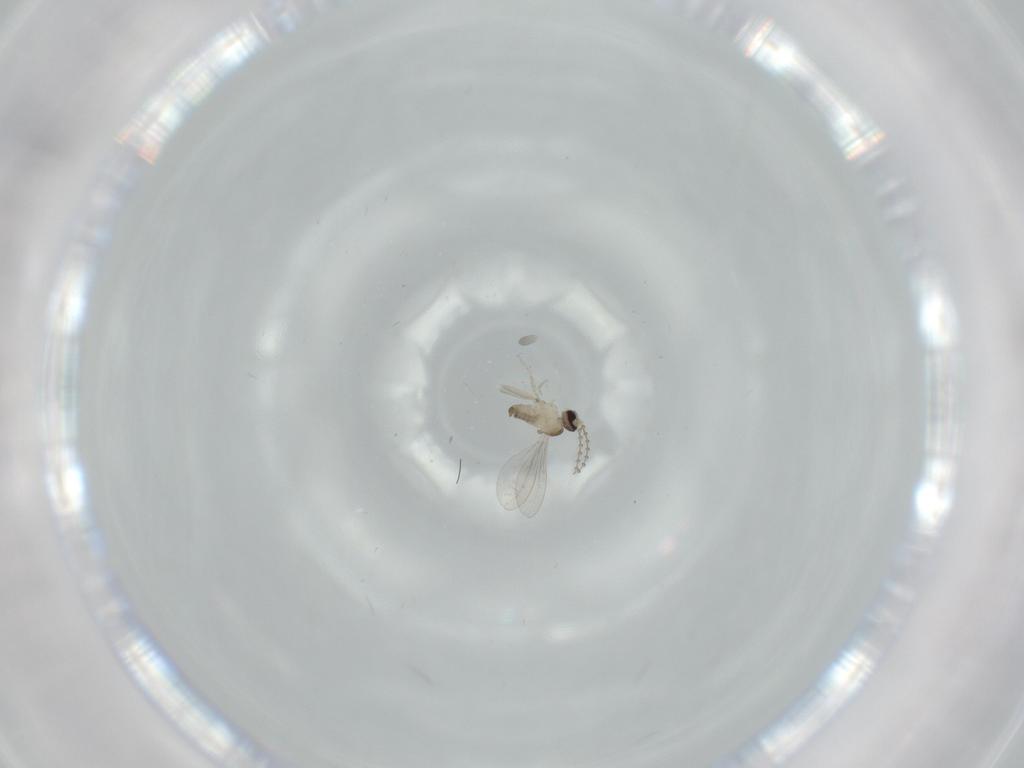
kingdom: Animalia
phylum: Arthropoda
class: Insecta
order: Diptera
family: Cecidomyiidae
